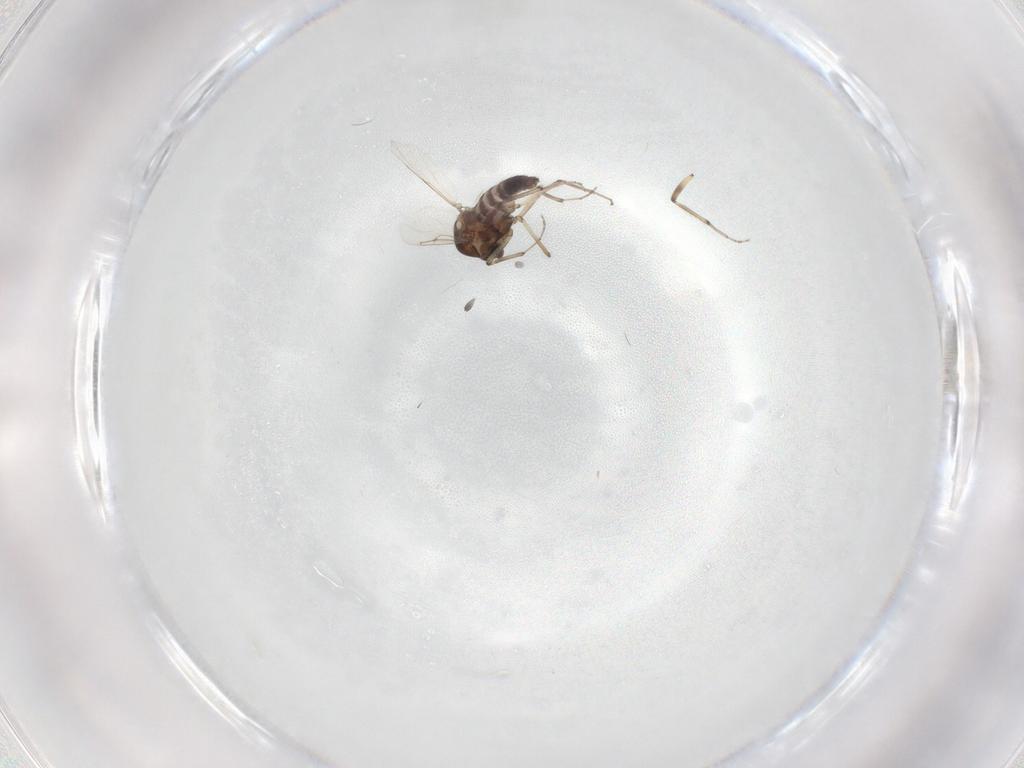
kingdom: Animalia
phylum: Arthropoda
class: Insecta
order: Diptera
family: Ceratopogonidae
